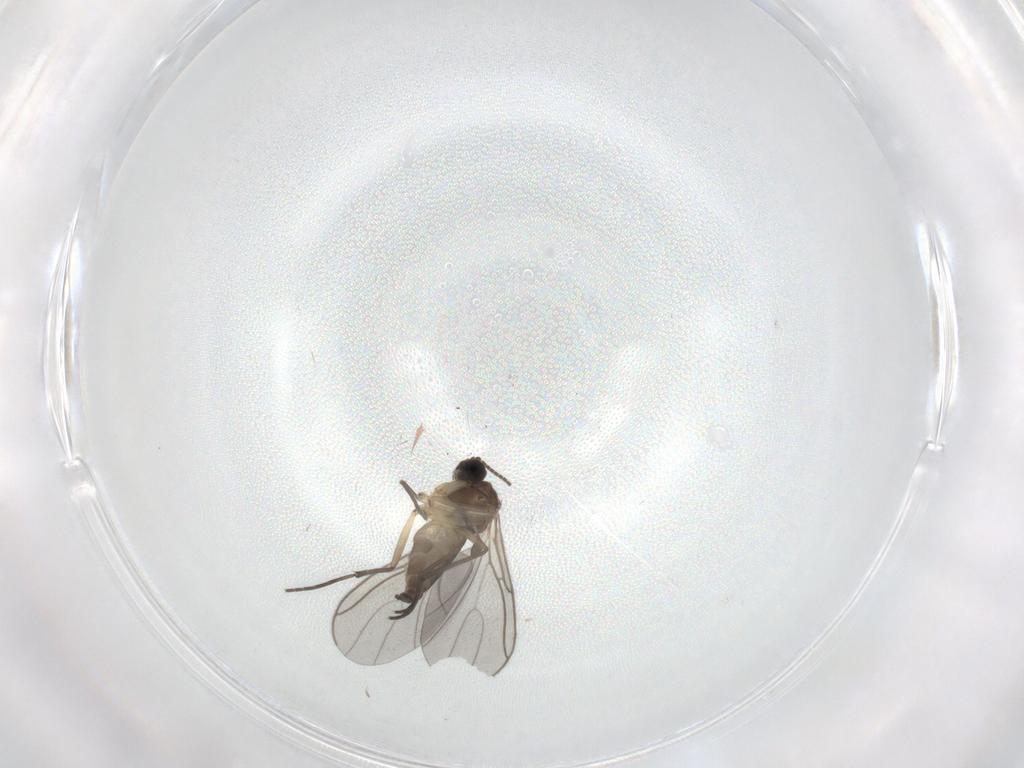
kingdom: Animalia
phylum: Arthropoda
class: Insecta
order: Diptera
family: Sciaridae
